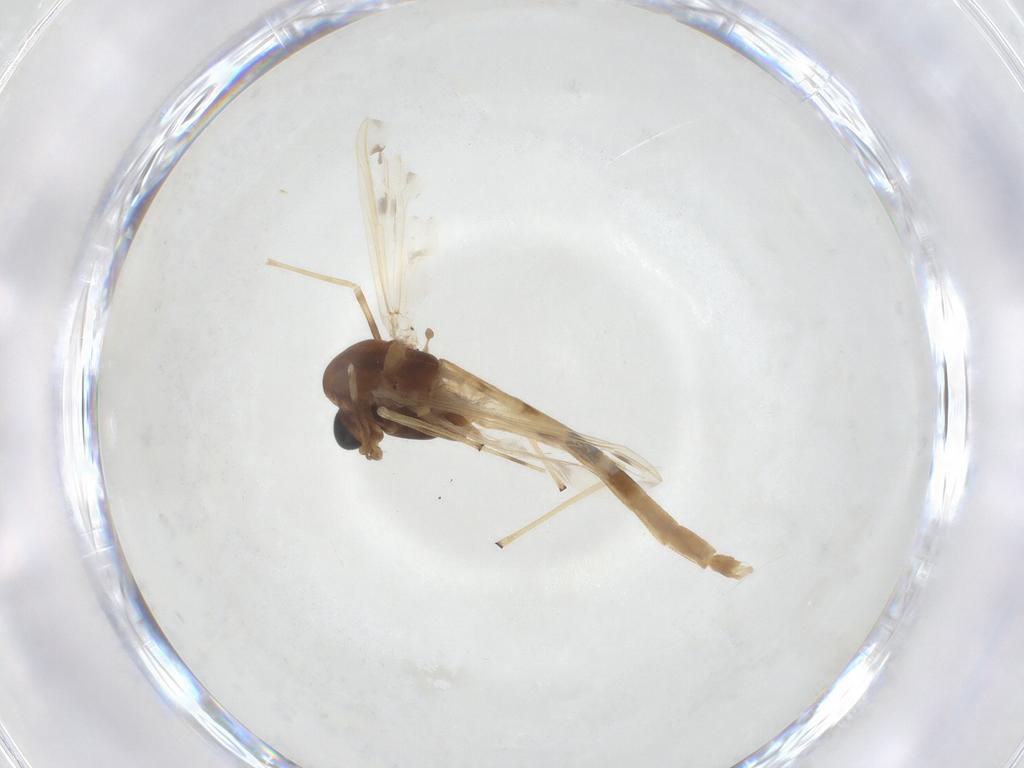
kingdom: Animalia
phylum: Arthropoda
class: Insecta
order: Diptera
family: Chironomidae
